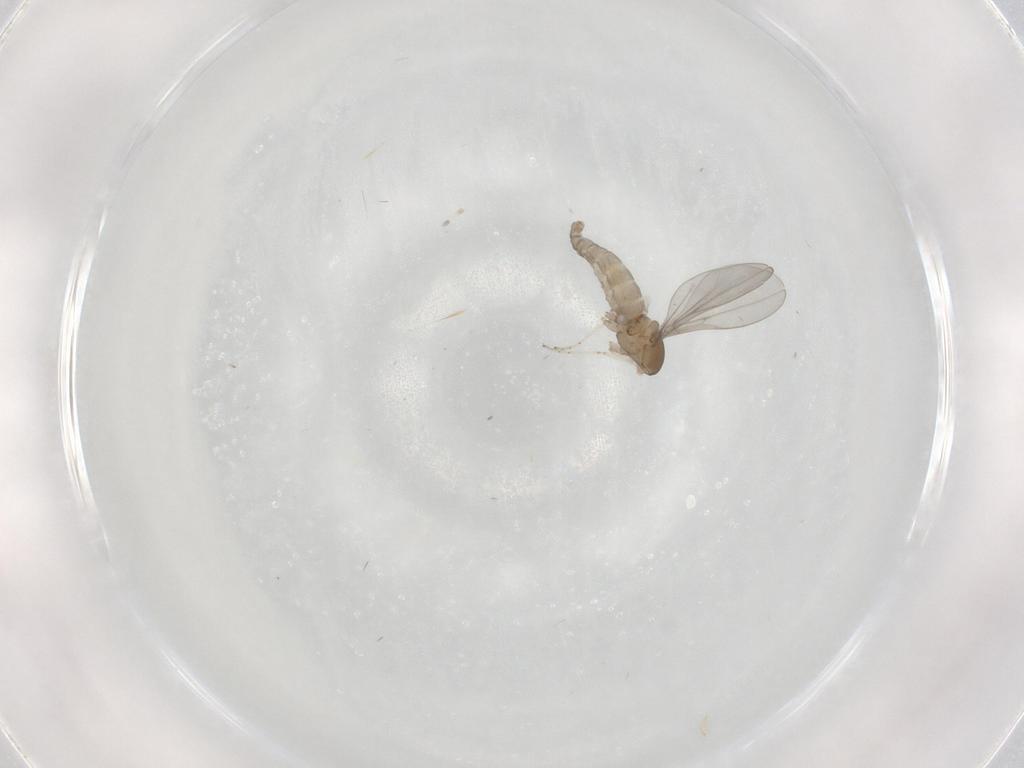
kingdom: Animalia
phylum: Arthropoda
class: Insecta
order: Diptera
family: Cecidomyiidae
